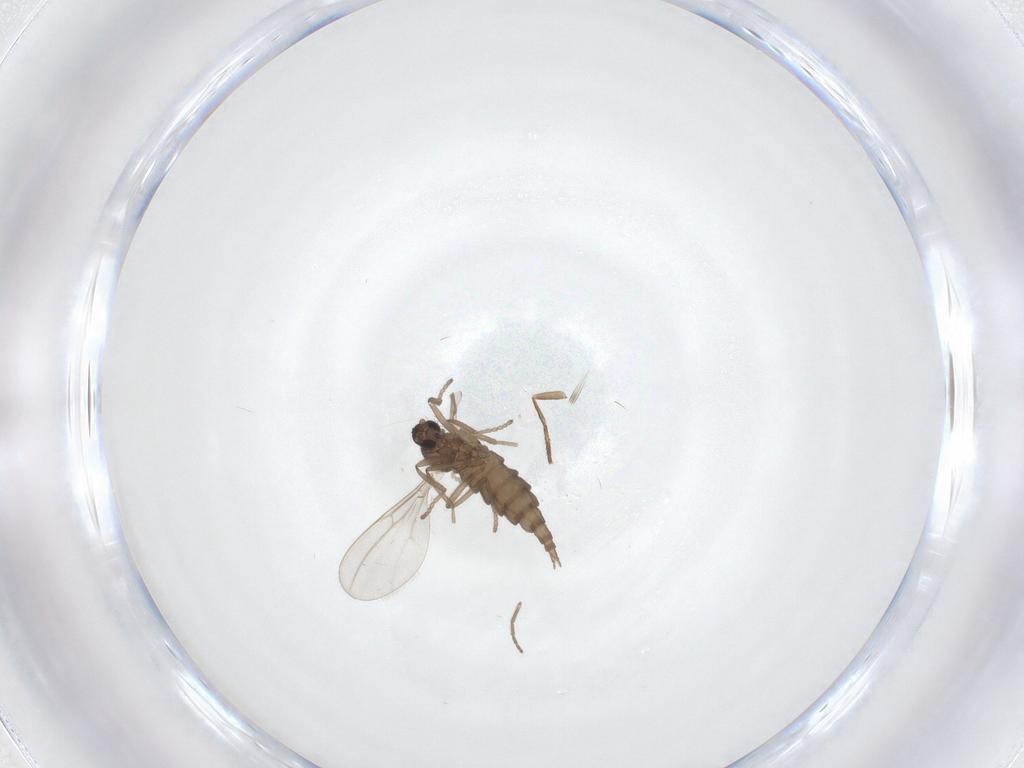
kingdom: Animalia
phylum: Arthropoda
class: Insecta
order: Diptera
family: Cecidomyiidae
